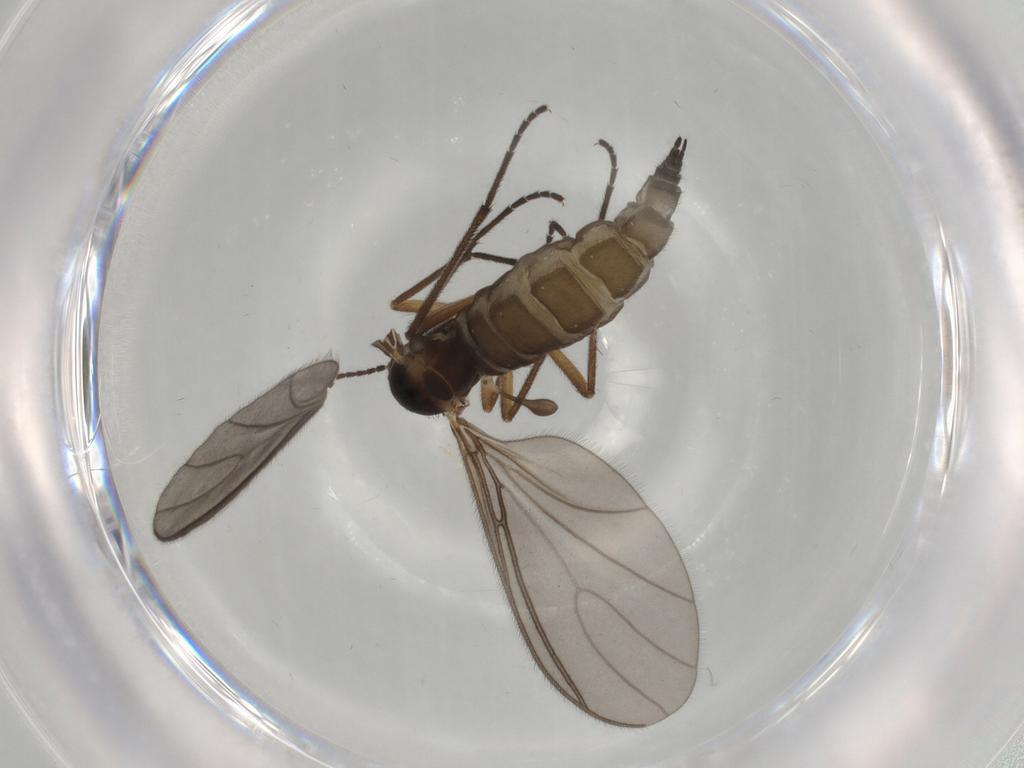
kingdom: Animalia
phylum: Arthropoda
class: Insecta
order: Diptera
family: Sciaridae
